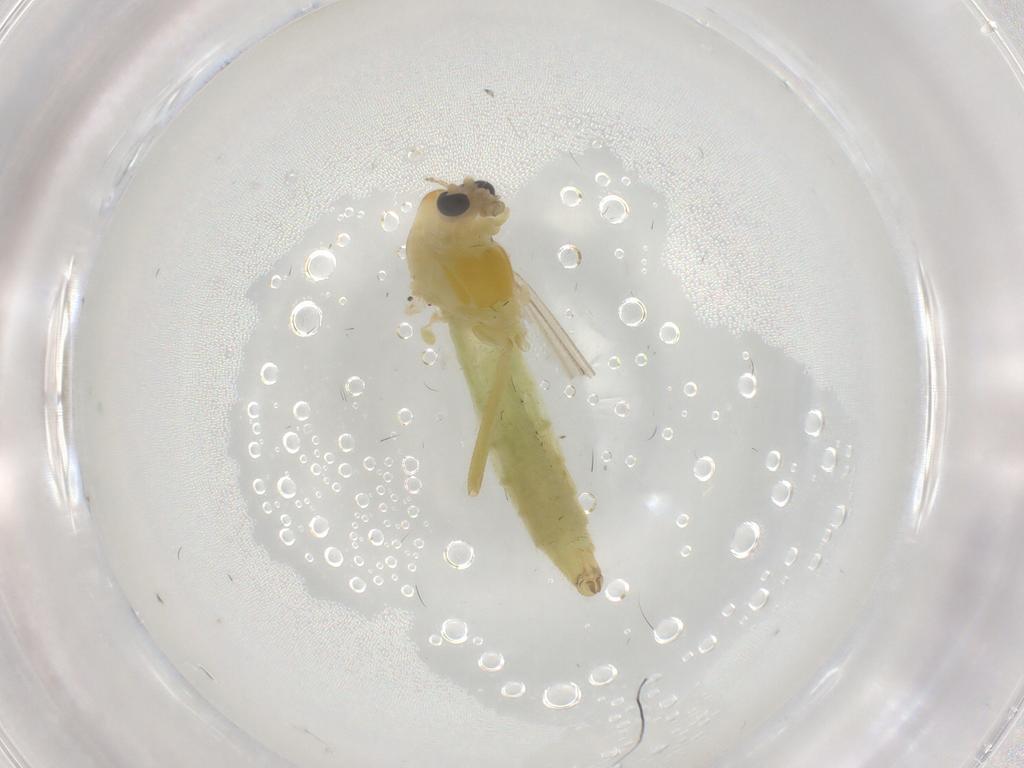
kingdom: Animalia
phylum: Arthropoda
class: Insecta
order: Diptera
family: Chironomidae
